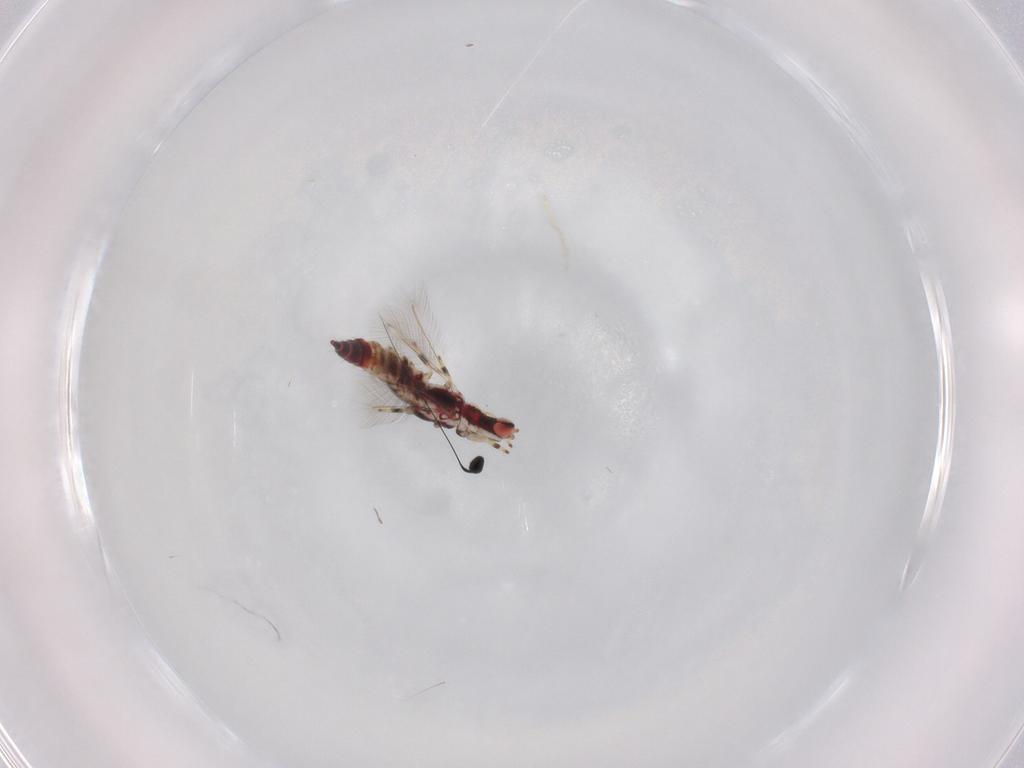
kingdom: Animalia
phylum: Arthropoda
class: Insecta
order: Thysanoptera
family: Phlaeothripidae
